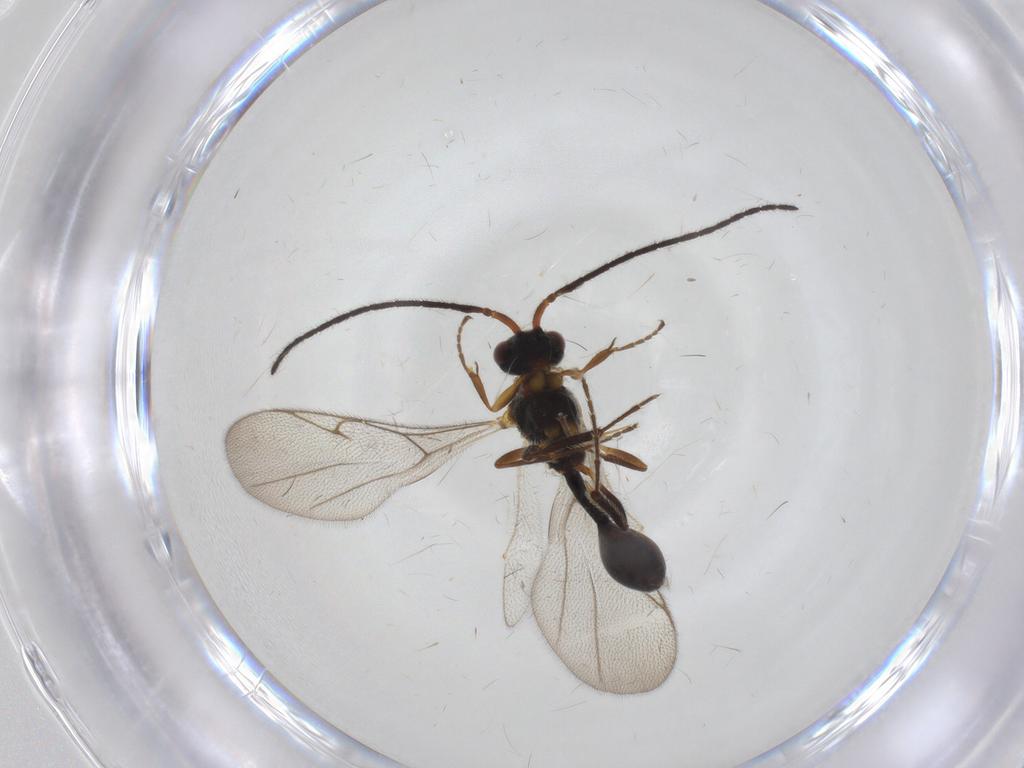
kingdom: Animalia
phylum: Arthropoda
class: Insecta
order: Hymenoptera
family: Diapriidae
